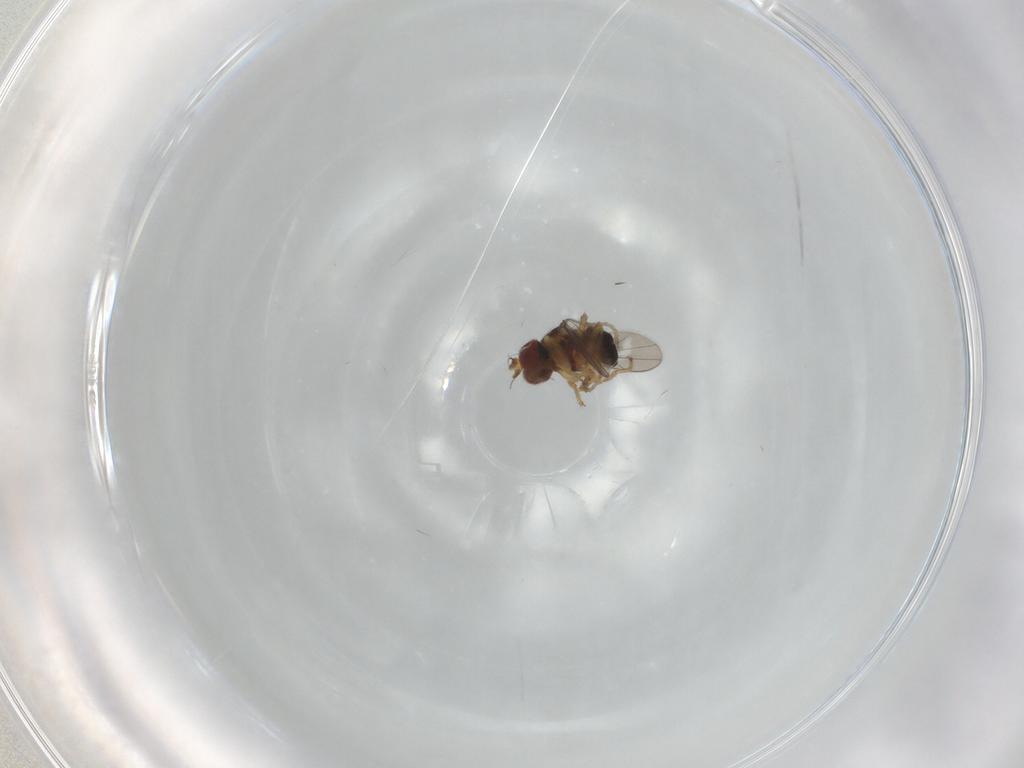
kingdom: Animalia
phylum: Arthropoda
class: Insecta
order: Diptera
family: Ephydridae
